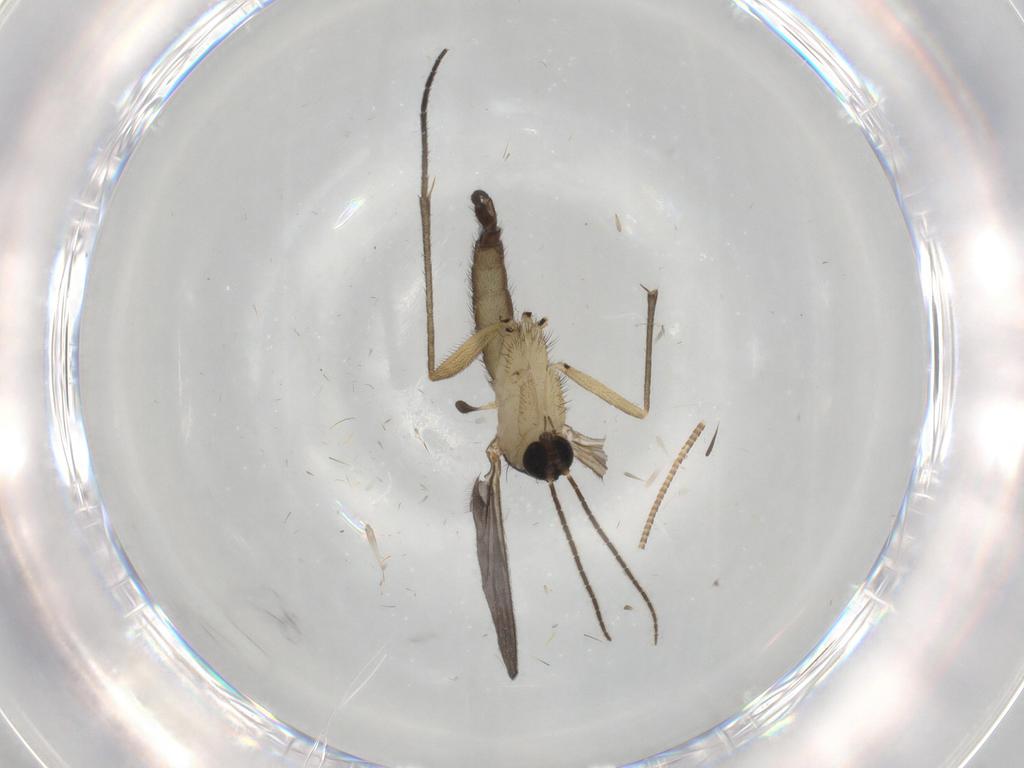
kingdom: Animalia
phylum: Arthropoda
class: Insecta
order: Diptera
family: Sciaridae
